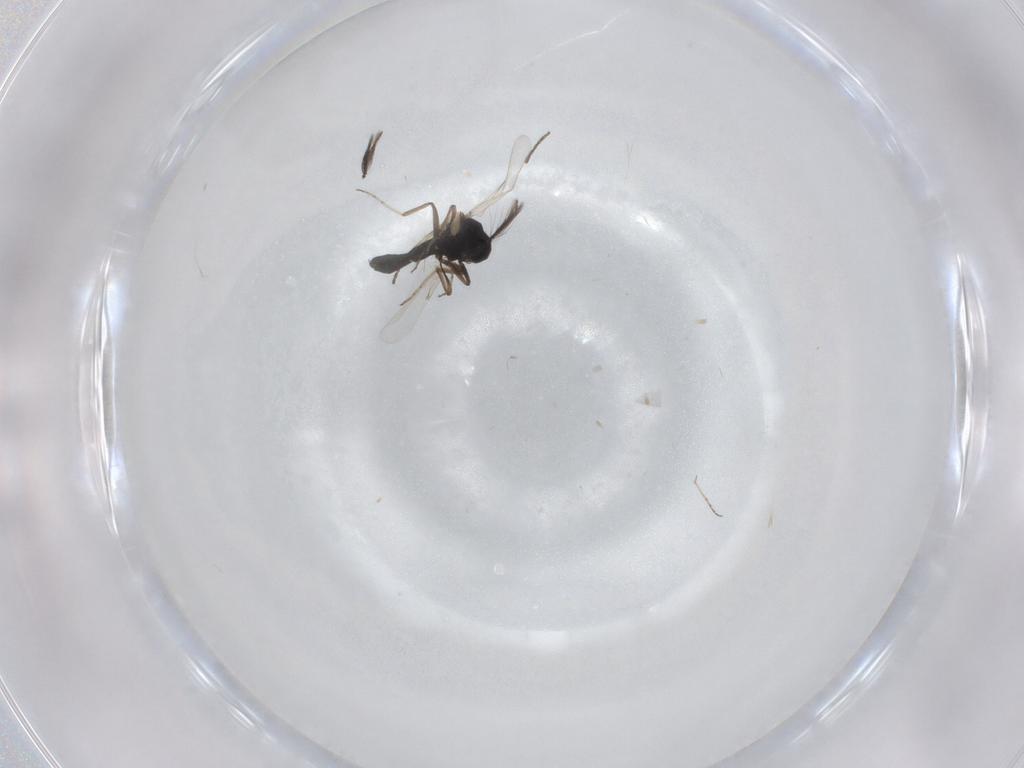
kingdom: Animalia
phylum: Arthropoda
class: Insecta
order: Diptera
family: Ceratopogonidae
